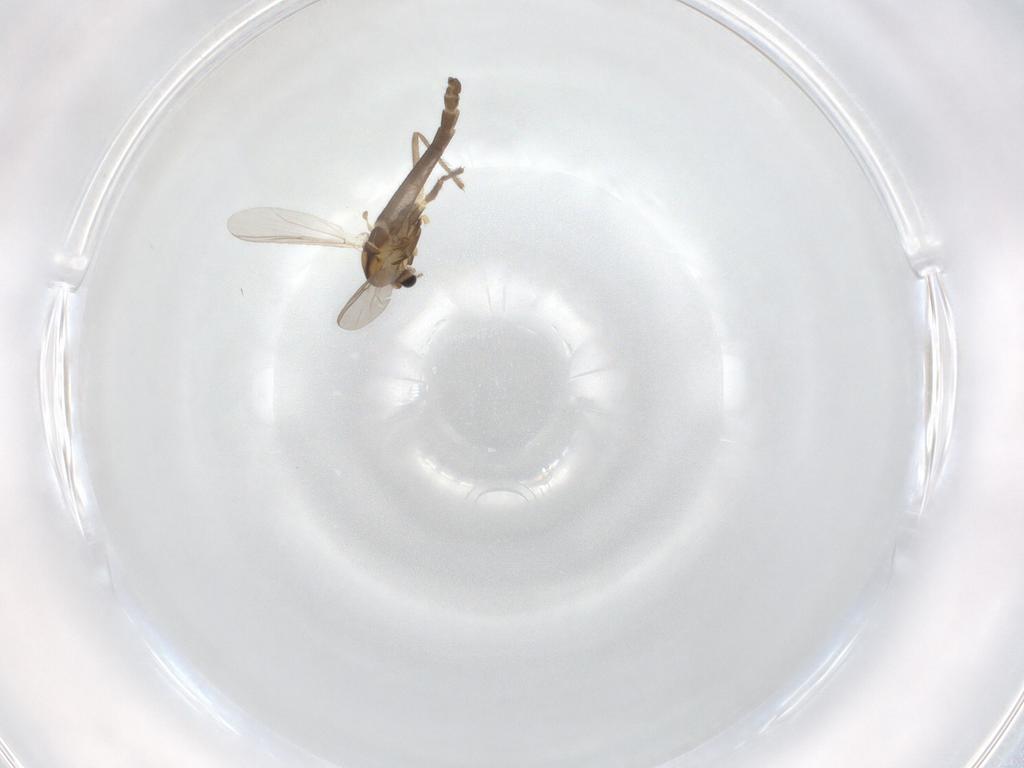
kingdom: Animalia
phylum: Arthropoda
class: Insecta
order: Diptera
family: Chironomidae
